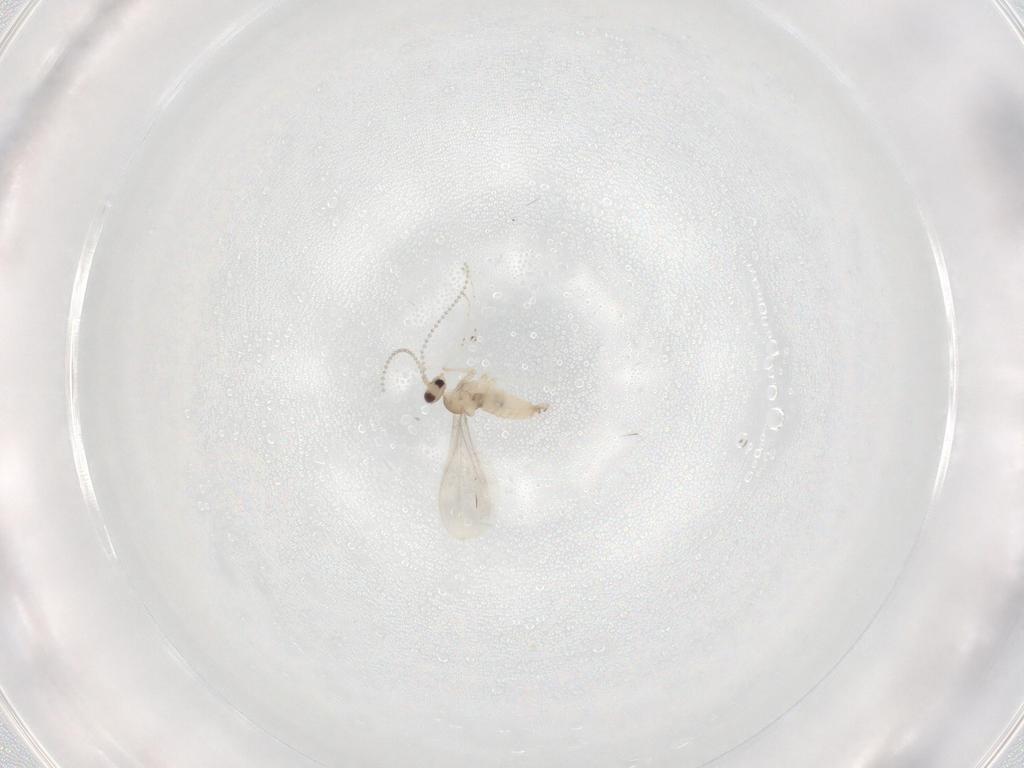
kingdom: Animalia
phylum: Arthropoda
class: Insecta
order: Diptera
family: Cecidomyiidae
